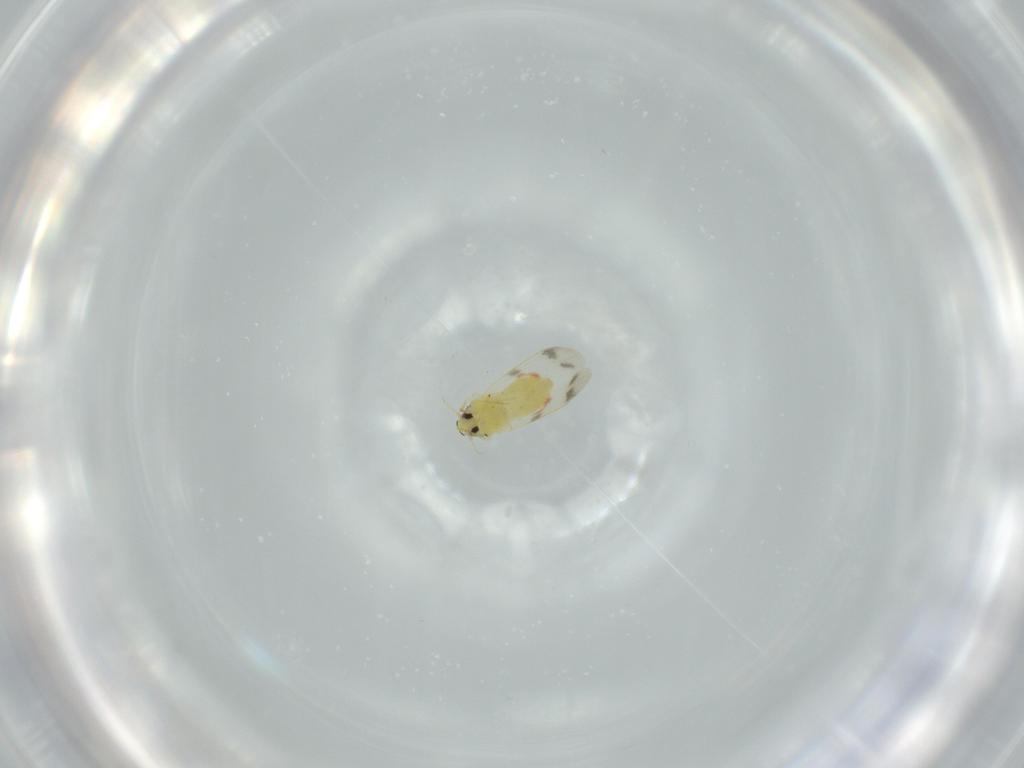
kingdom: Animalia
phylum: Arthropoda
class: Insecta
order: Hemiptera
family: Aleyrodidae
